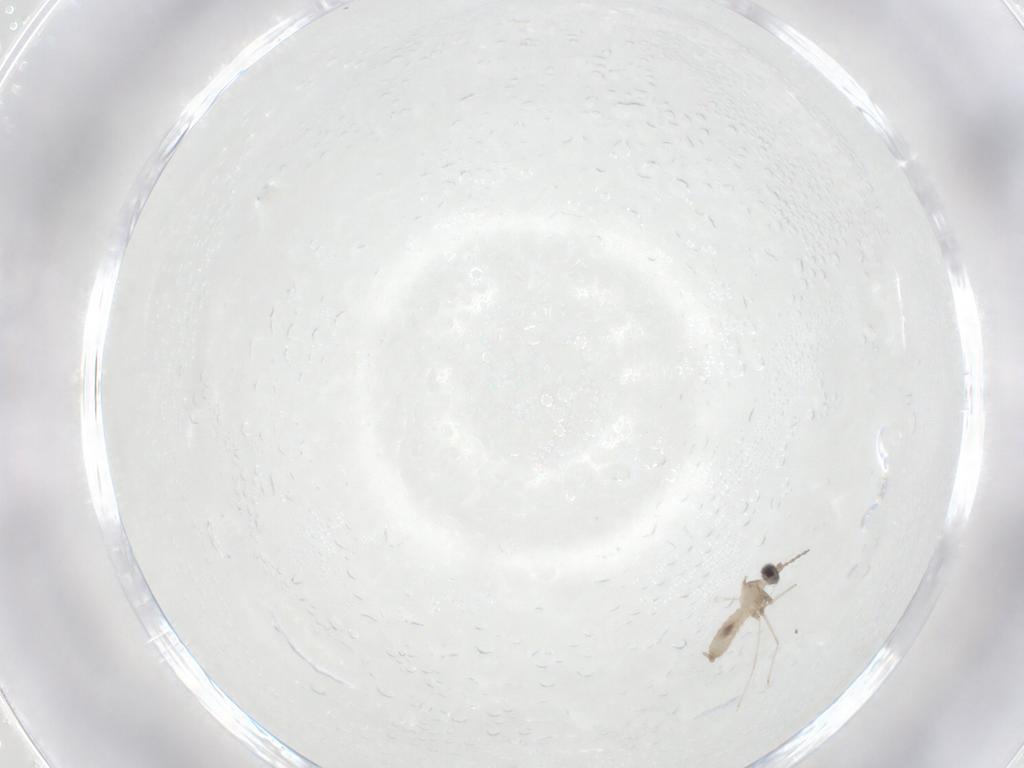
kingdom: Animalia
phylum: Arthropoda
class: Insecta
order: Diptera
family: Cecidomyiidae
